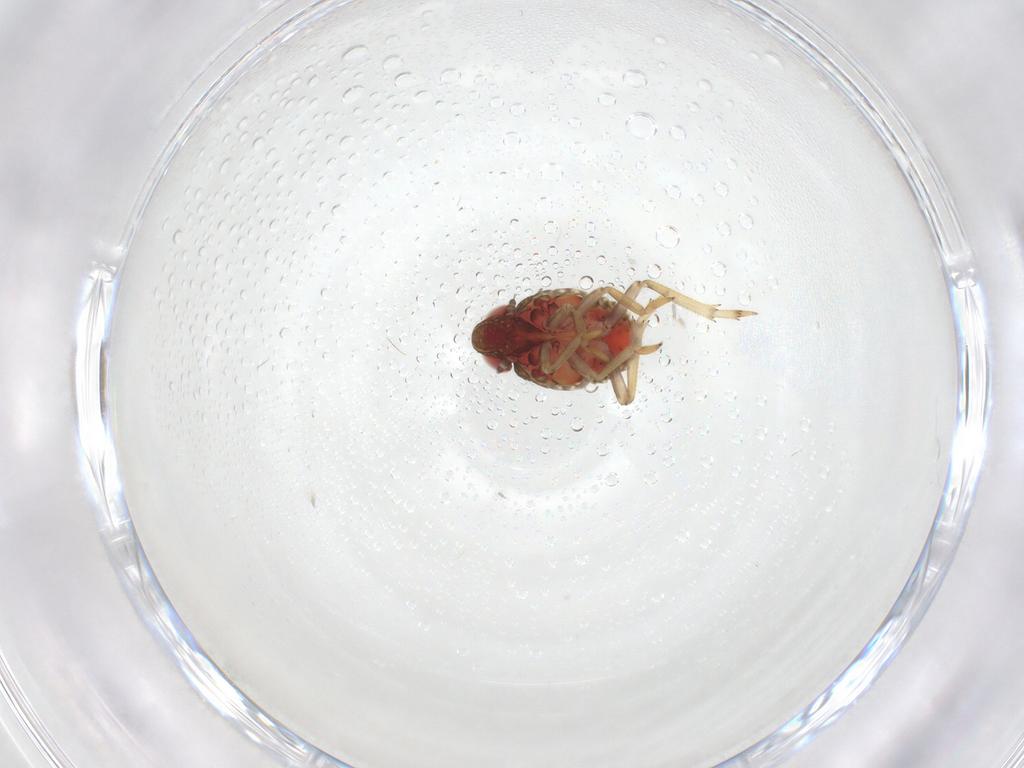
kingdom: Animalia
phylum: Arthropoda
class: Insecta
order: Hemiptera
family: Issidae
